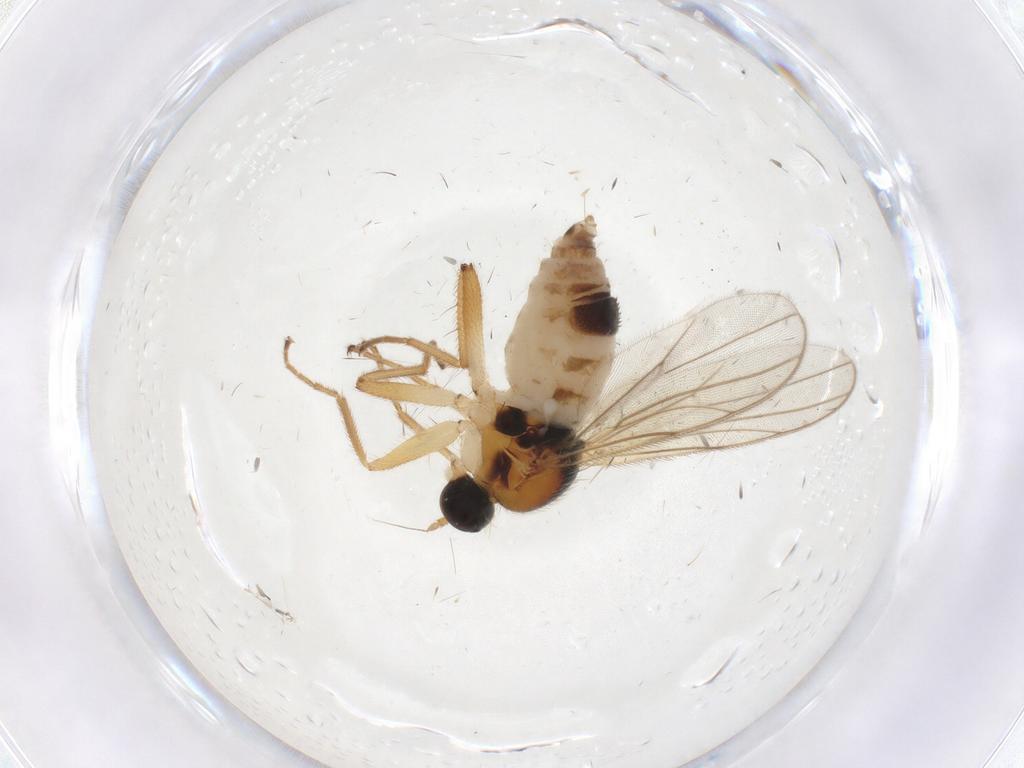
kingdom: Animalia
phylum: Arthropoda
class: Insecta
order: Diptera
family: Hybotidae
